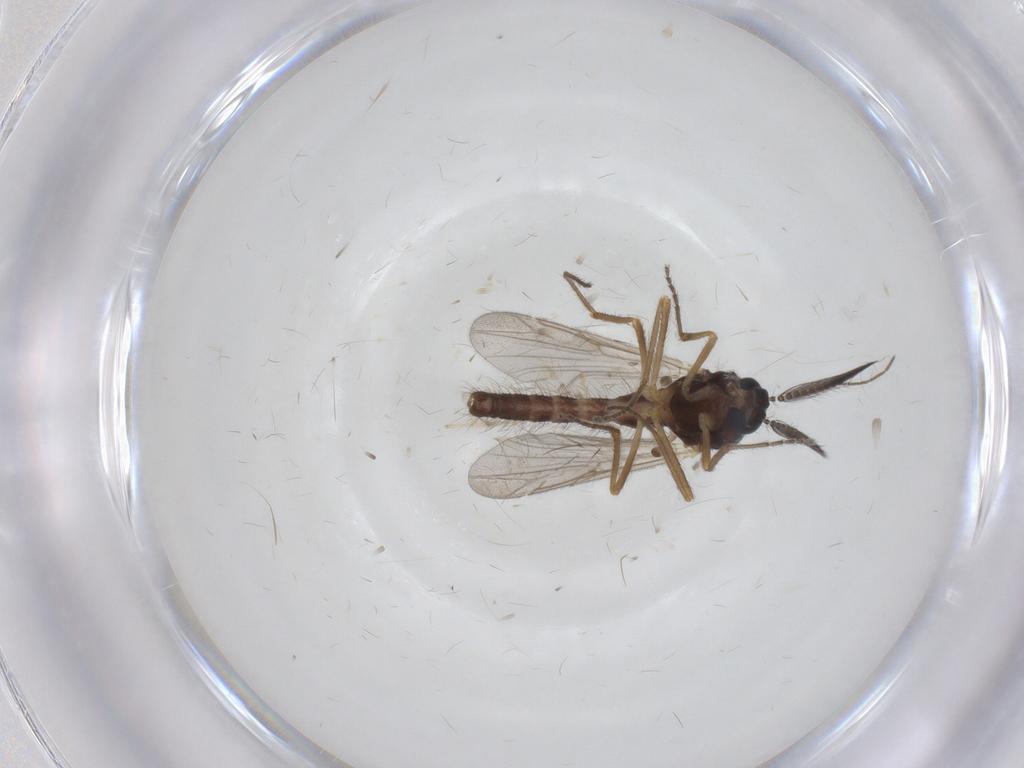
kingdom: Animalia
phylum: Arthropoda
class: Insecta
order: Diptera
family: Ceratopogonidae
